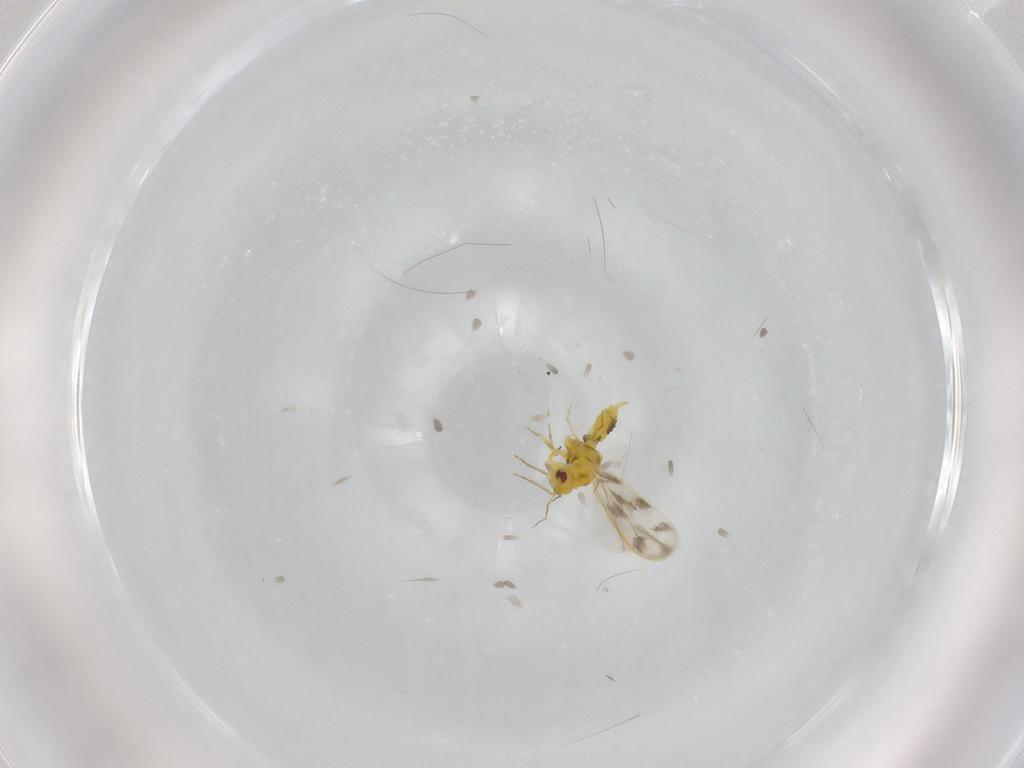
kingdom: Animalia
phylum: Arthropoda
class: Insecta
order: Hemiptera
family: Aleyrodidae
